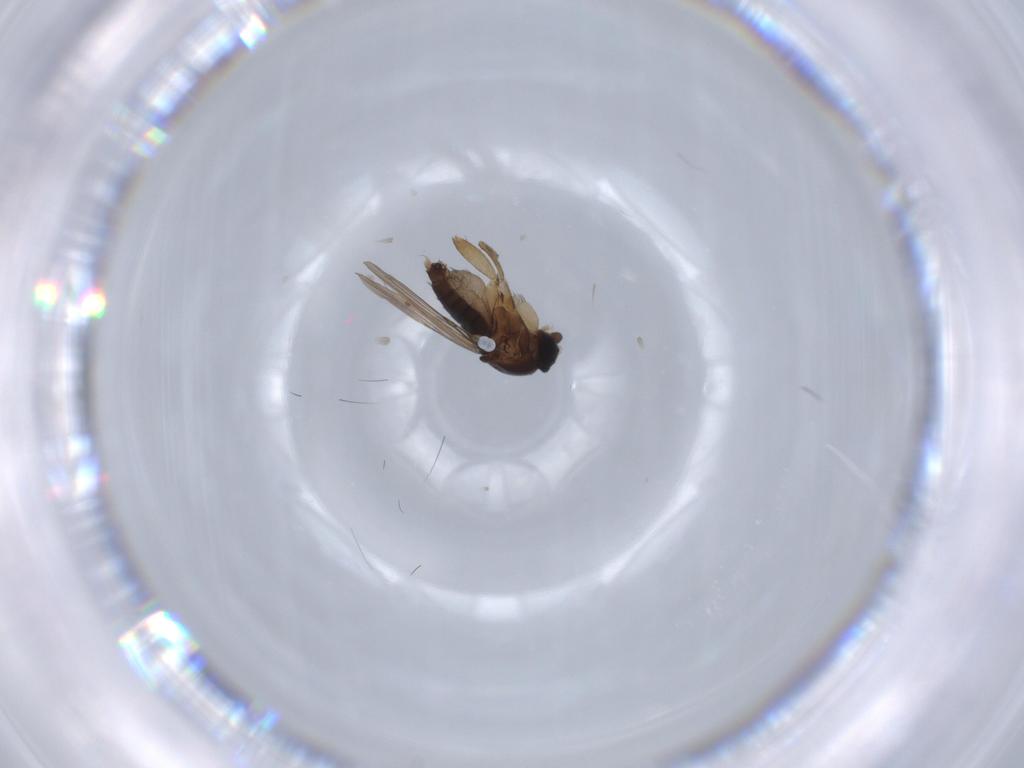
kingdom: Animalia
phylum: Arthropoda
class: Insecta
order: Diptera
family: Phoridae
